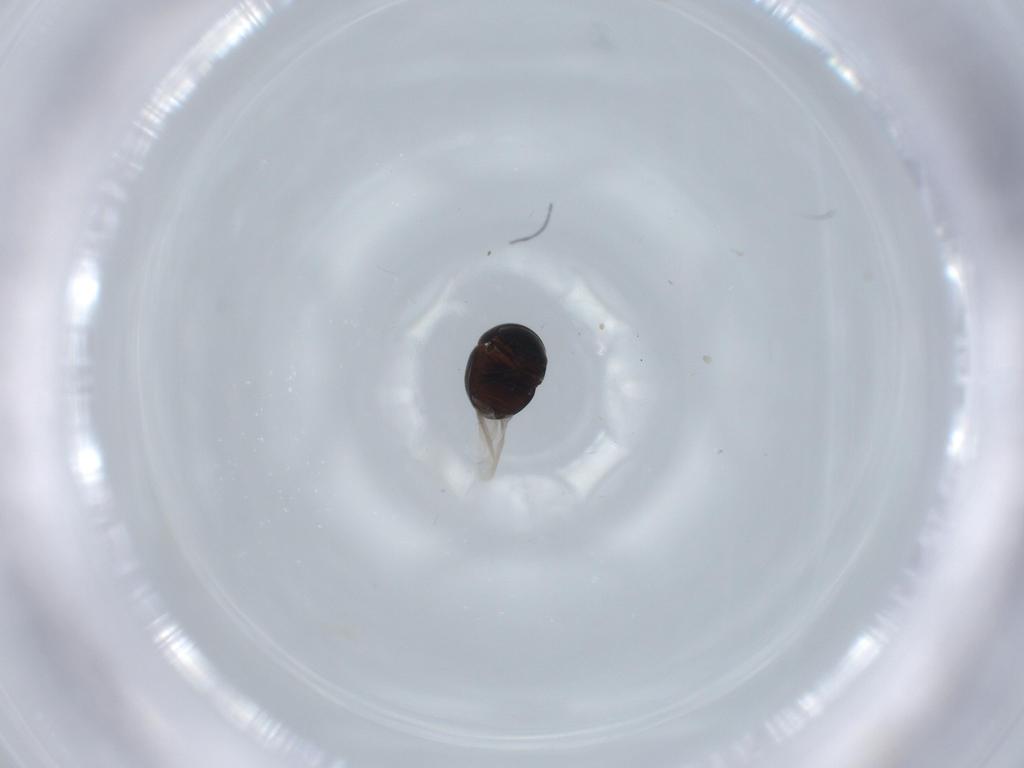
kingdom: Animalia
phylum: Arthropoda
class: Insecta
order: Coleoptera
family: Chrysomelidae
